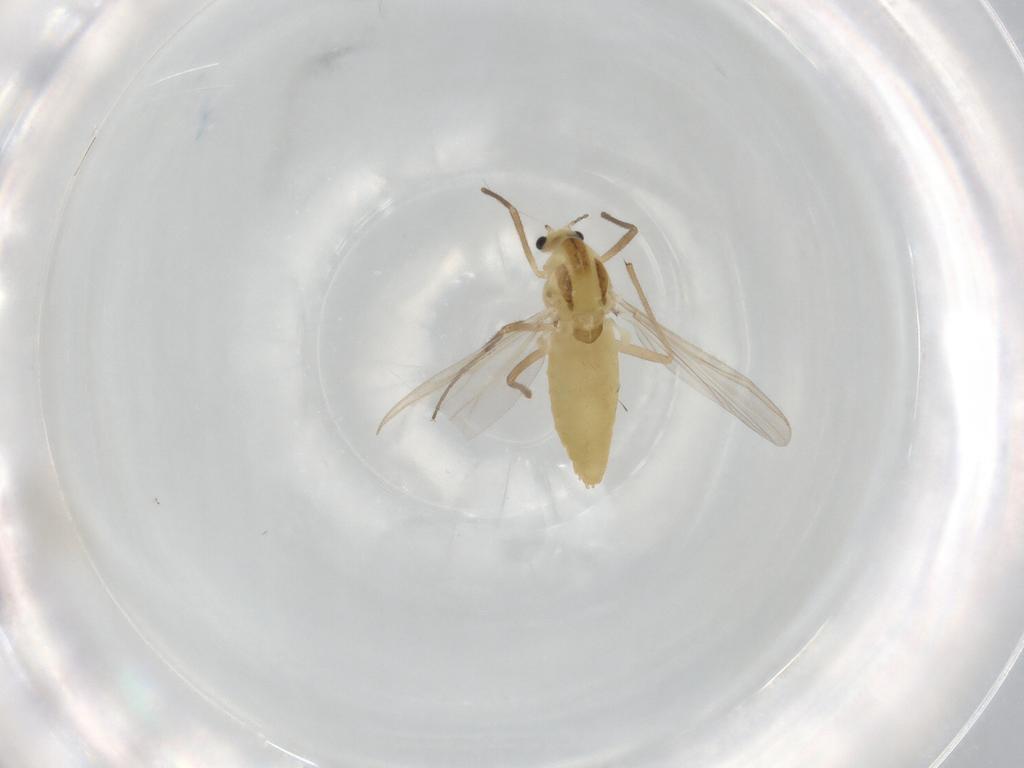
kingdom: Animalia
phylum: Arthropoda
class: Insecta
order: Diptera
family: Chironomidae
